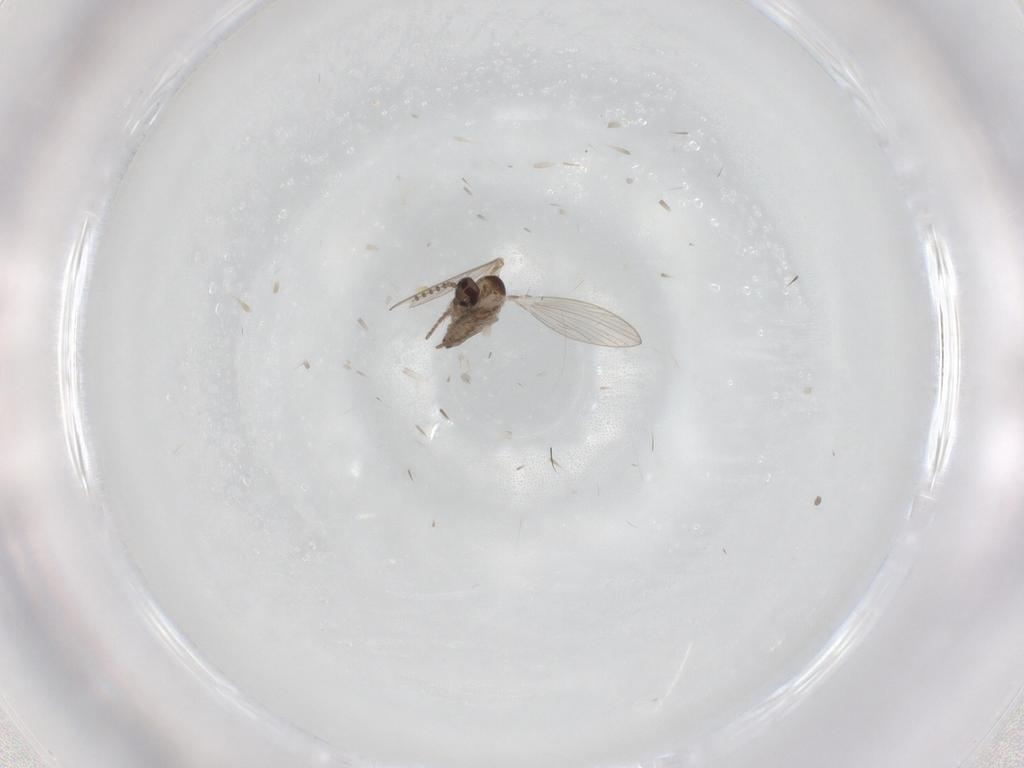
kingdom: Animalia
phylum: Arthropoda
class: Insecta
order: Diptera
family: Psychodidae
